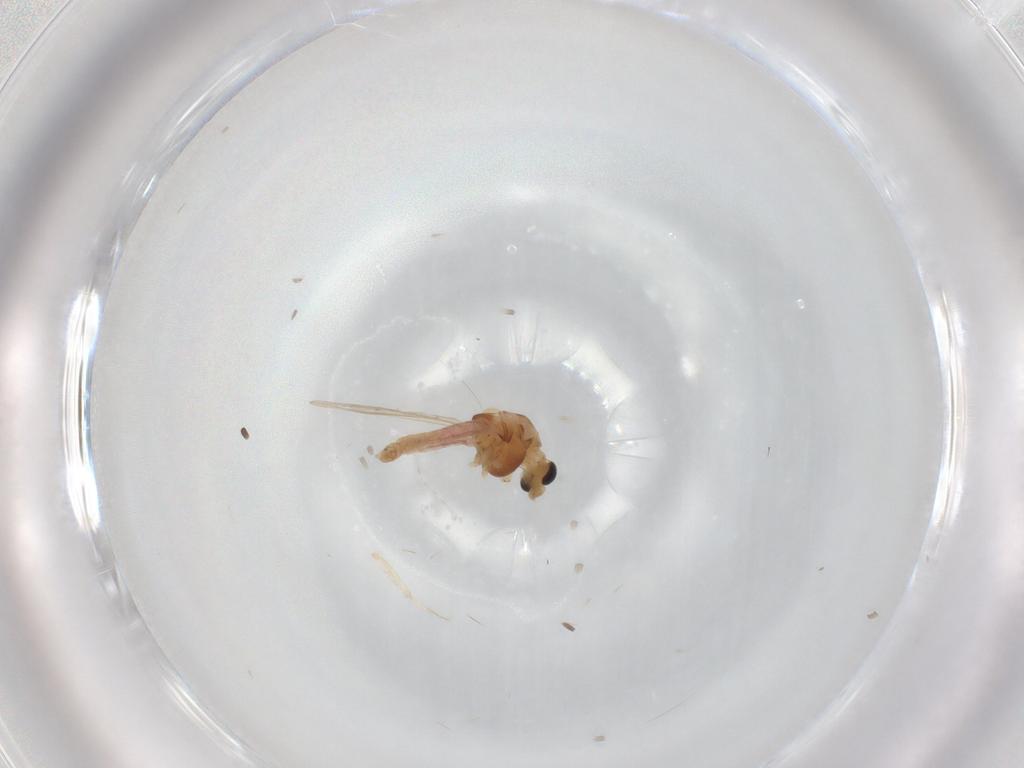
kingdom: Animalia
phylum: Arthropoda
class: Insecta
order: Diptera
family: Chironomidae
